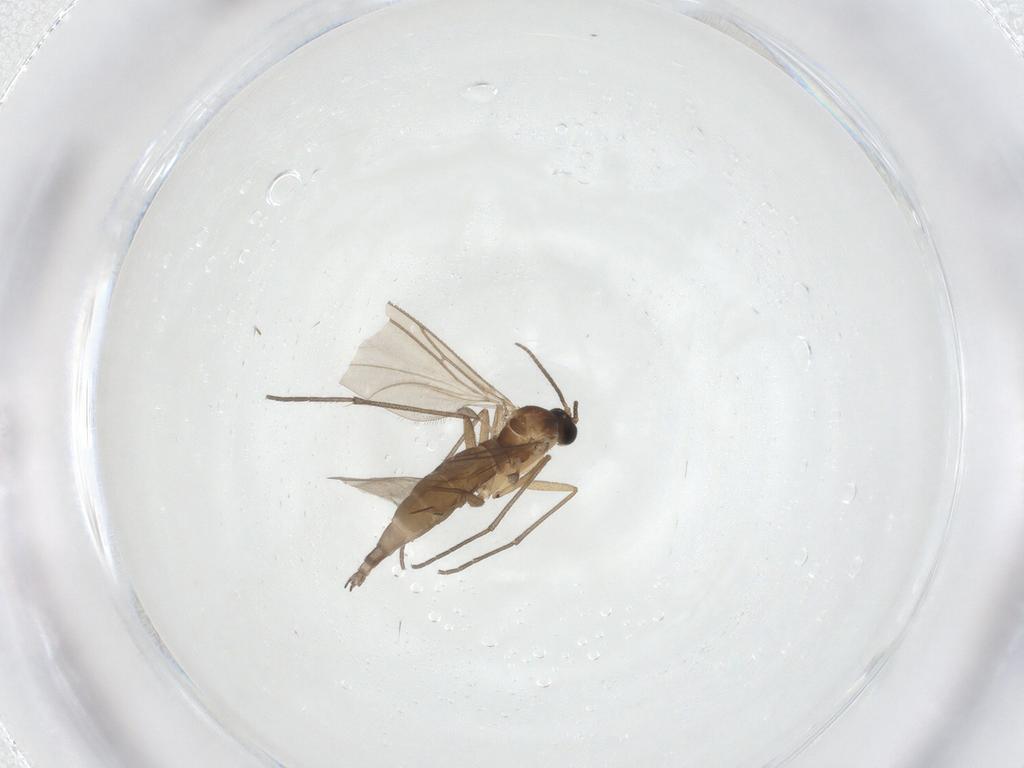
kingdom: Animalia
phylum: Arthropoda
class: Insecta
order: Diptera
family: Sciaridae
